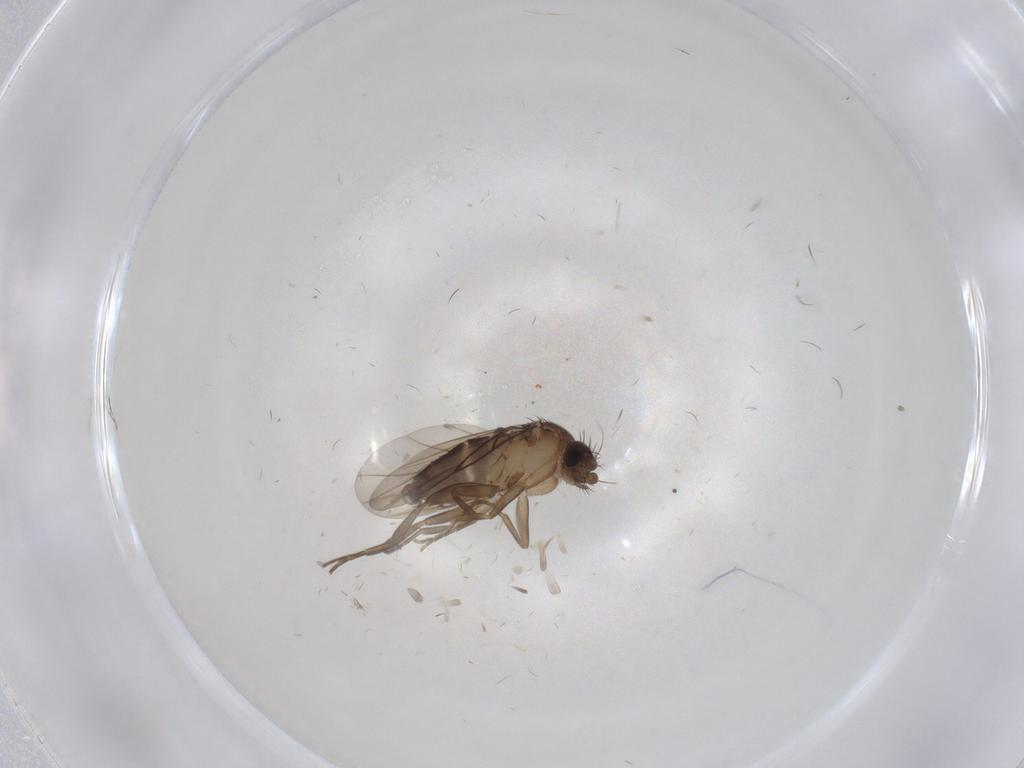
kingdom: Animalia
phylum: Arthropoda
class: Insecta
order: Diptera
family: Phoridae
